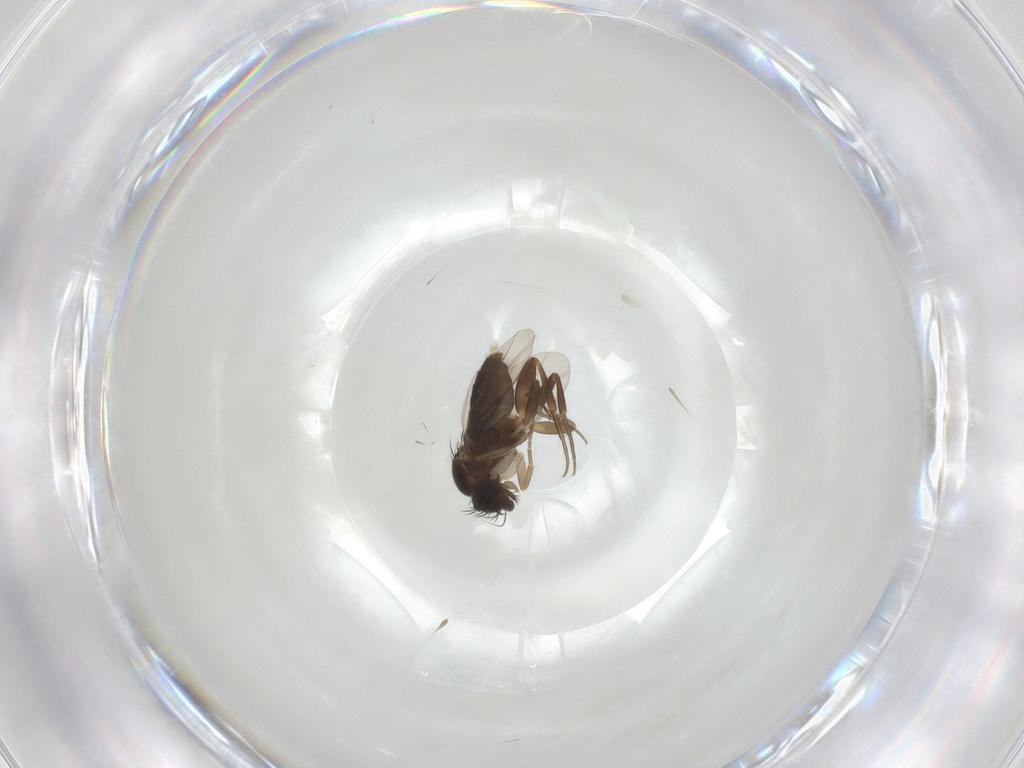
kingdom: Animalia
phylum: Arthropoda
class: Insecta
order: Diptera
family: Phoridae
